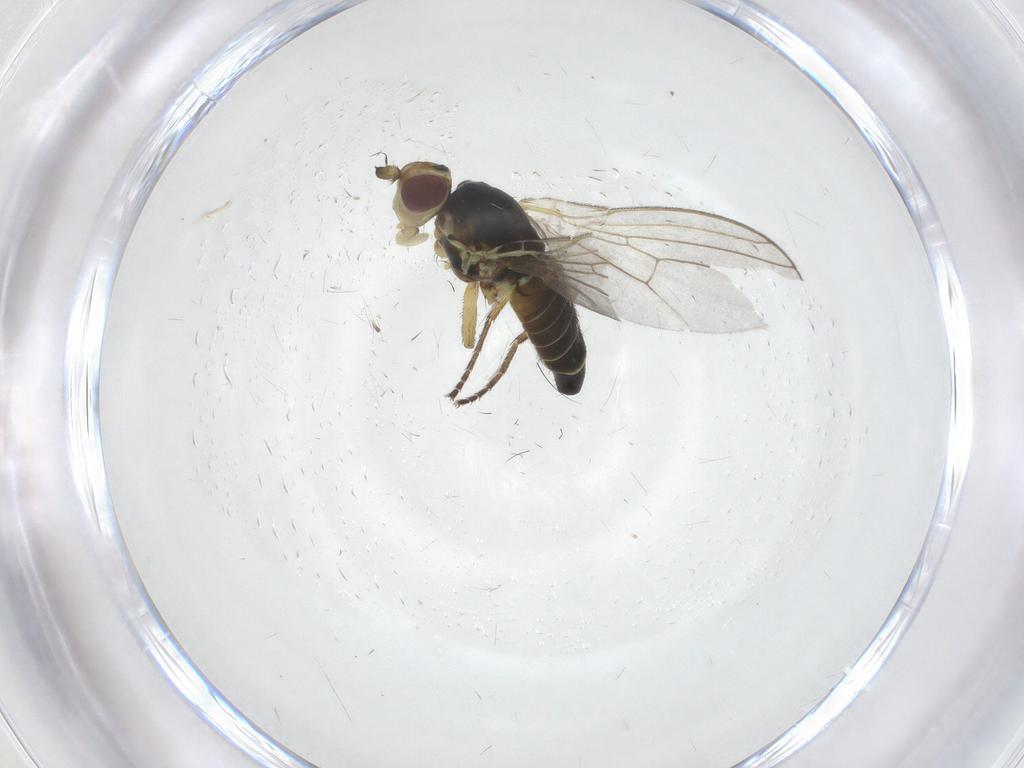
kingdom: Animalia
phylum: Arthropoda
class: Insecta
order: Diptera
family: Agromyzidae
